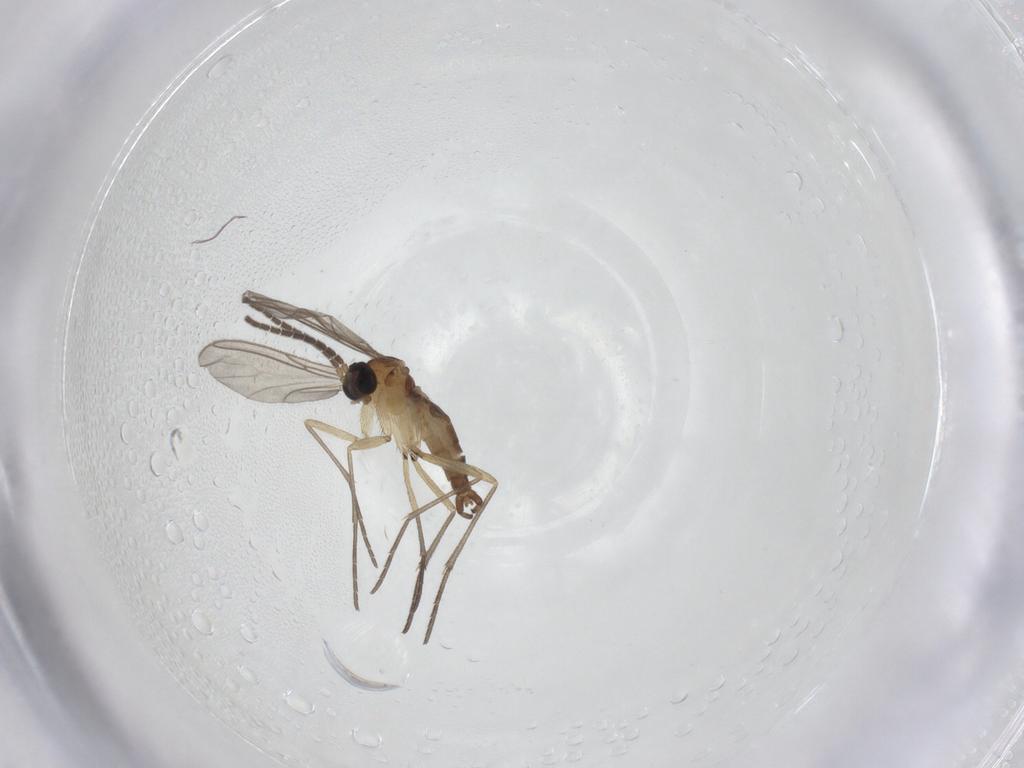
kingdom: Animalia
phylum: Arthropoda
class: Insecta
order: Diptera
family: Sciaridae
